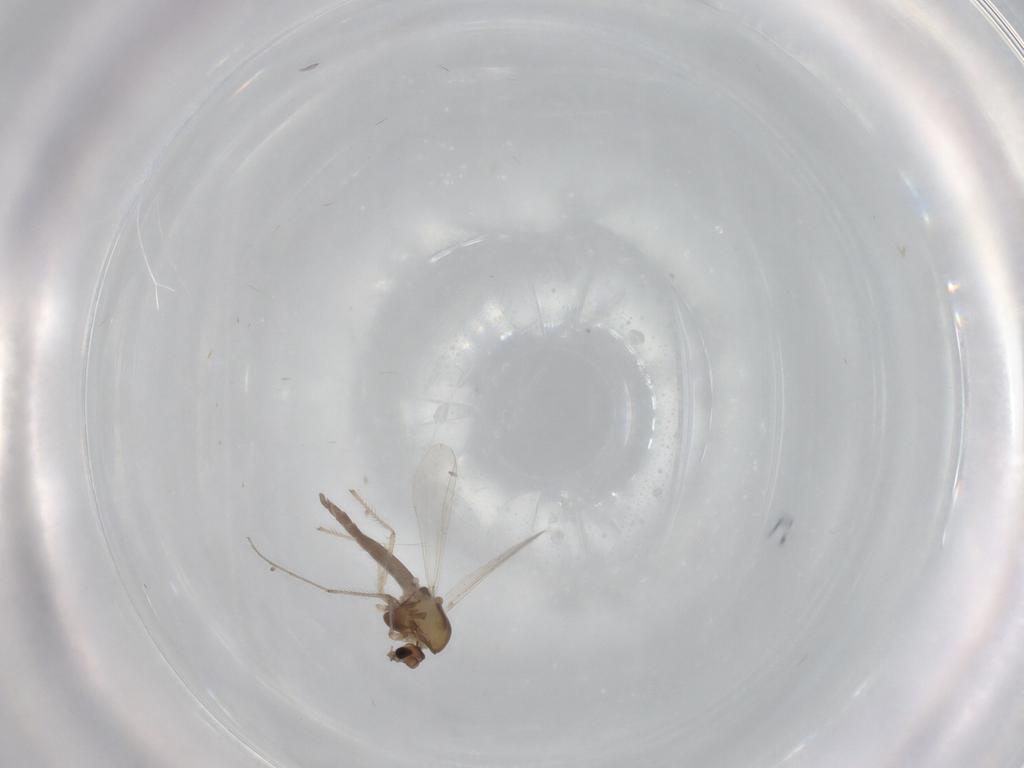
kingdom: Animalia
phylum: Arthropoda
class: Insecta
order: Diptera
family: Chironomidae
